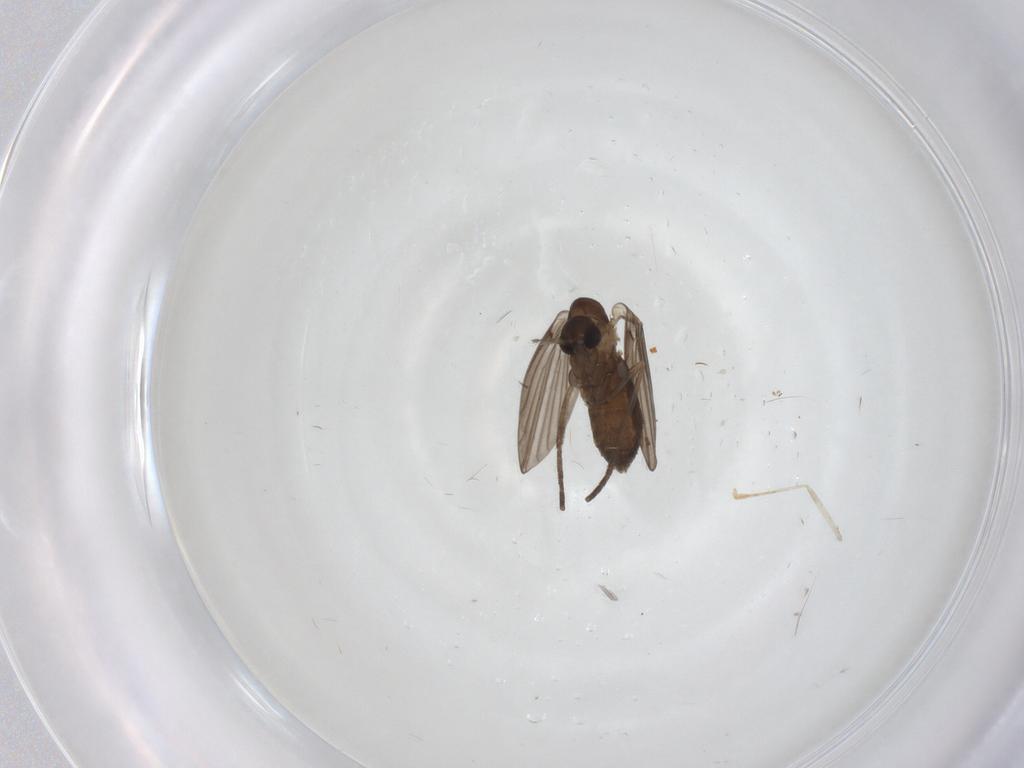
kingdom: Animalia
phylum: Arthropoda
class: Insecta
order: Diptera
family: Psychodidae
